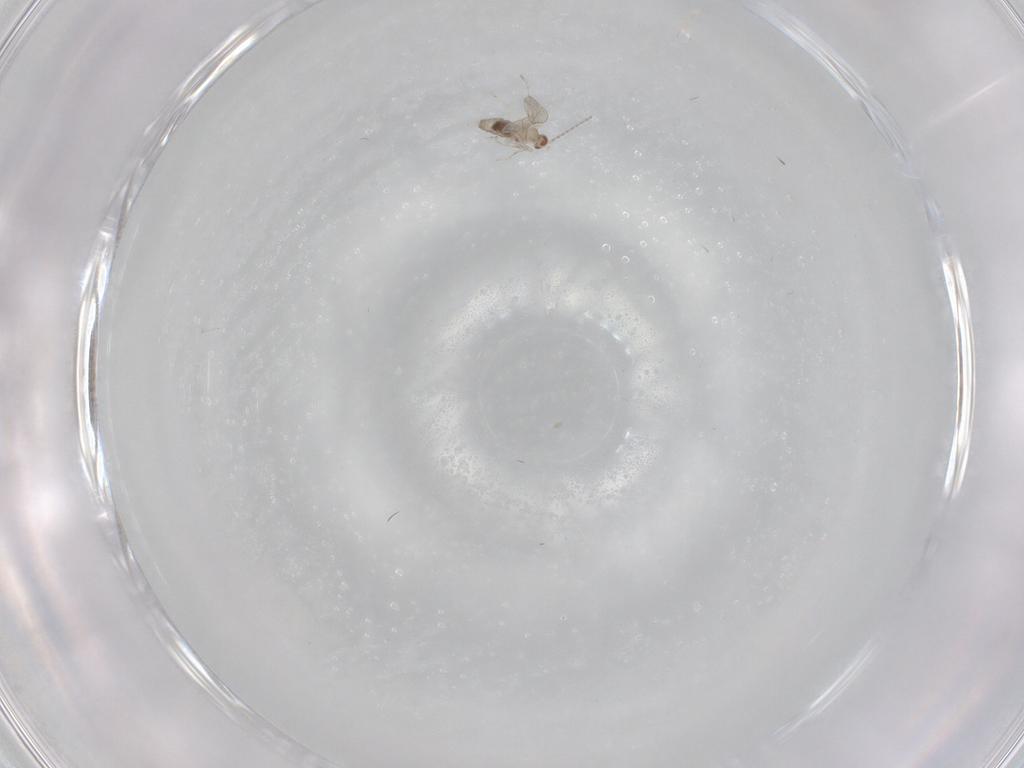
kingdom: Animalia
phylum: Arthropoda
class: Insecta
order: Diptera
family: Cecidomyiidae
